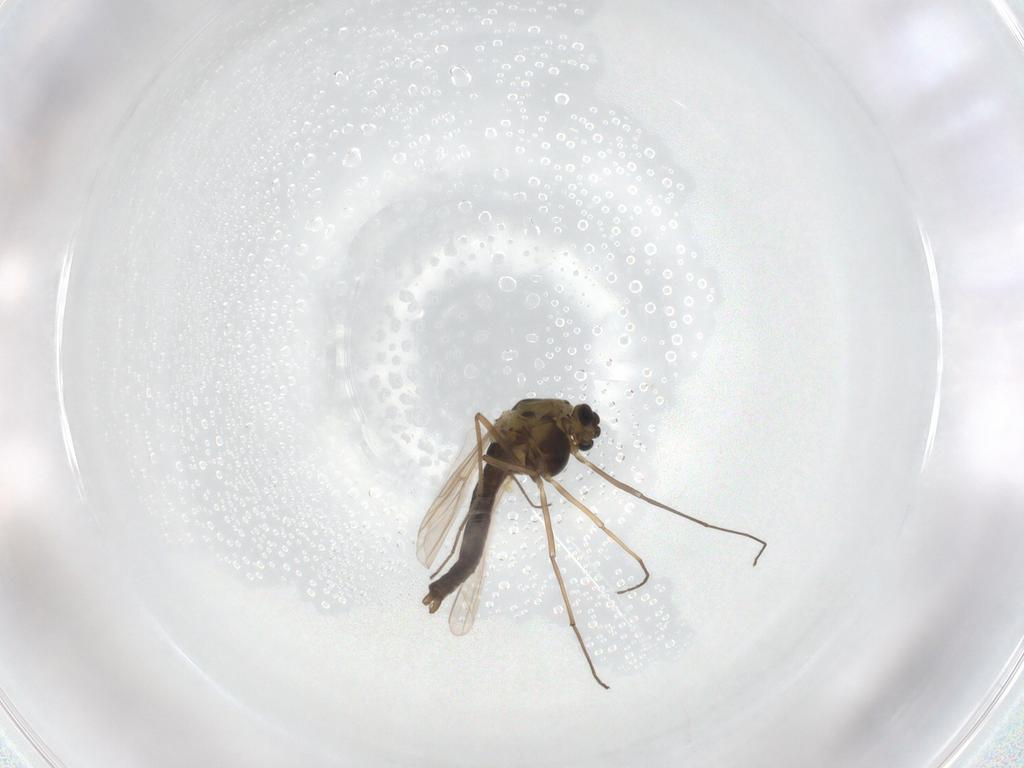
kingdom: Animalia
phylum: Arthropoda
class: Insecta
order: Diptera
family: Chironomidae
